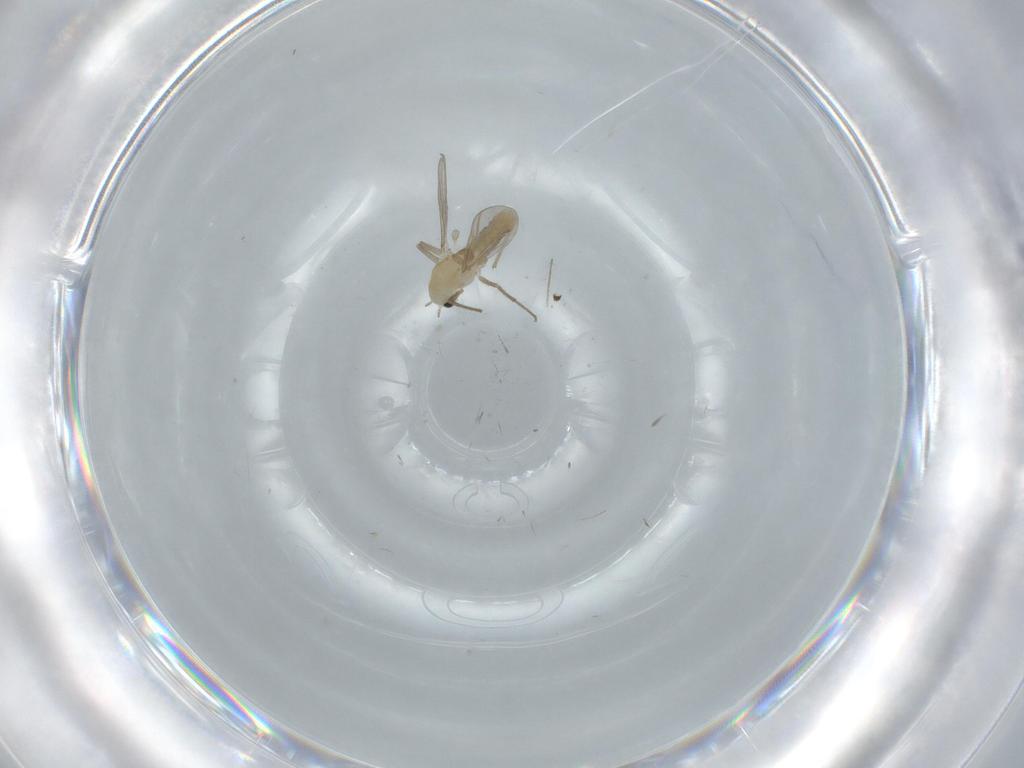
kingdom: Animalia
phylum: Arthropoda
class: Insecta
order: Diptera
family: Chironomidae
